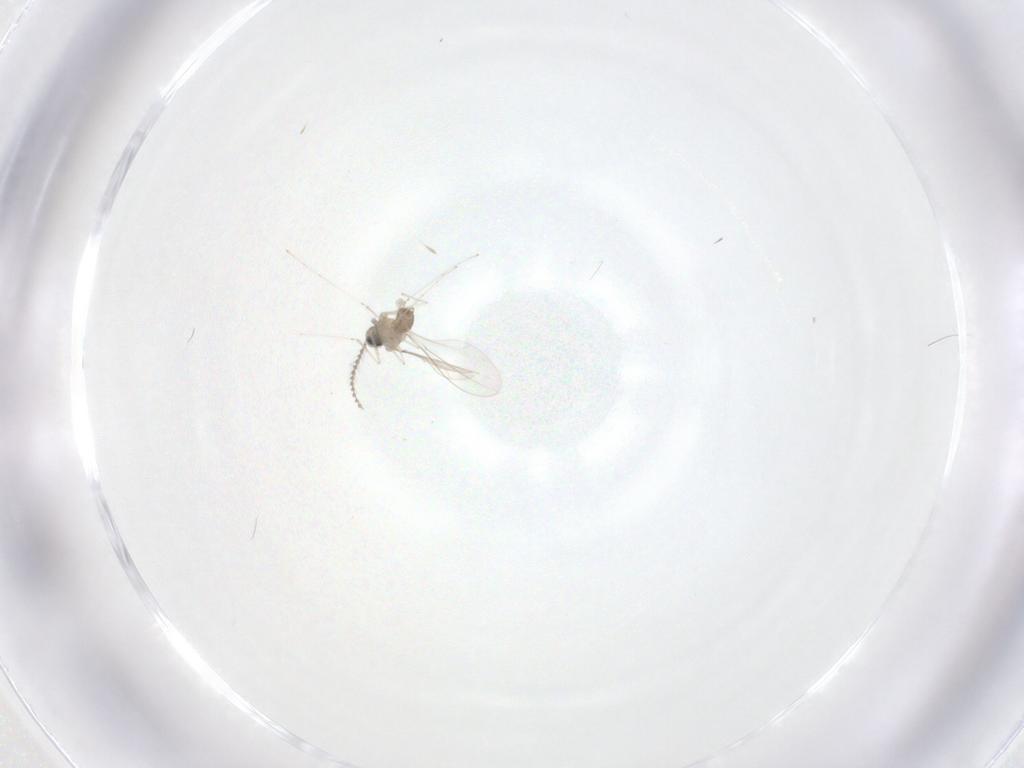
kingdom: Animalia
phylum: Arthropoda
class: Insecta
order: Diptera
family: Cecidomyiidae
